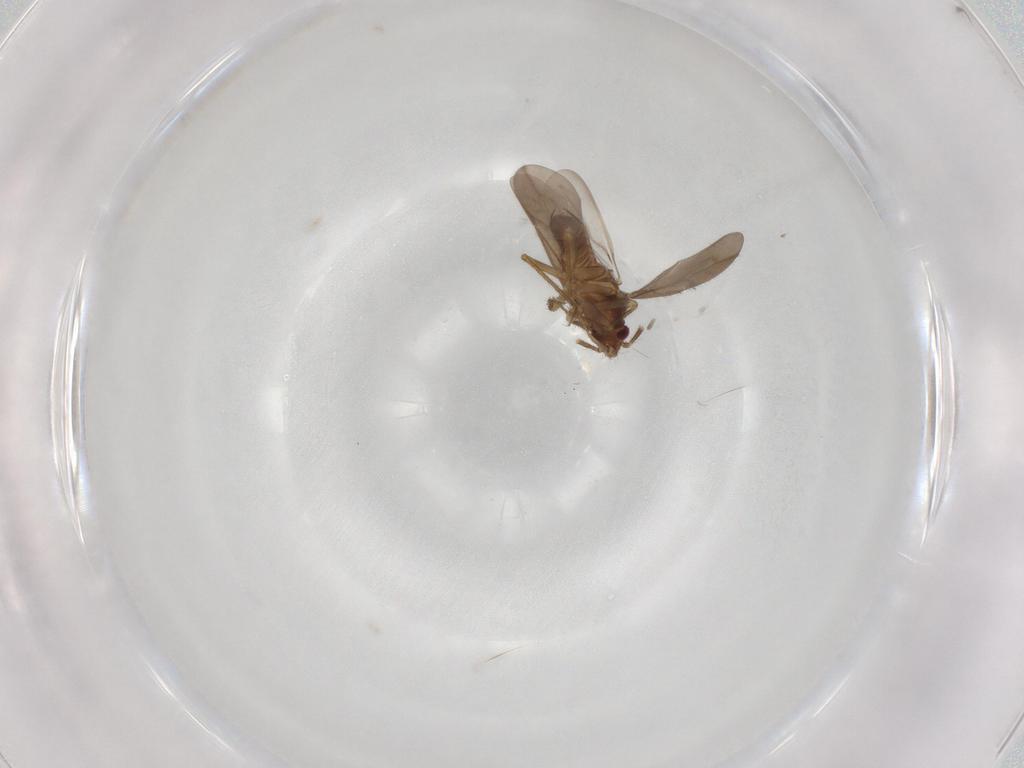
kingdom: Animalia
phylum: Arthropoda
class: Insecta
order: Hemiptera
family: Ceratocombidae
